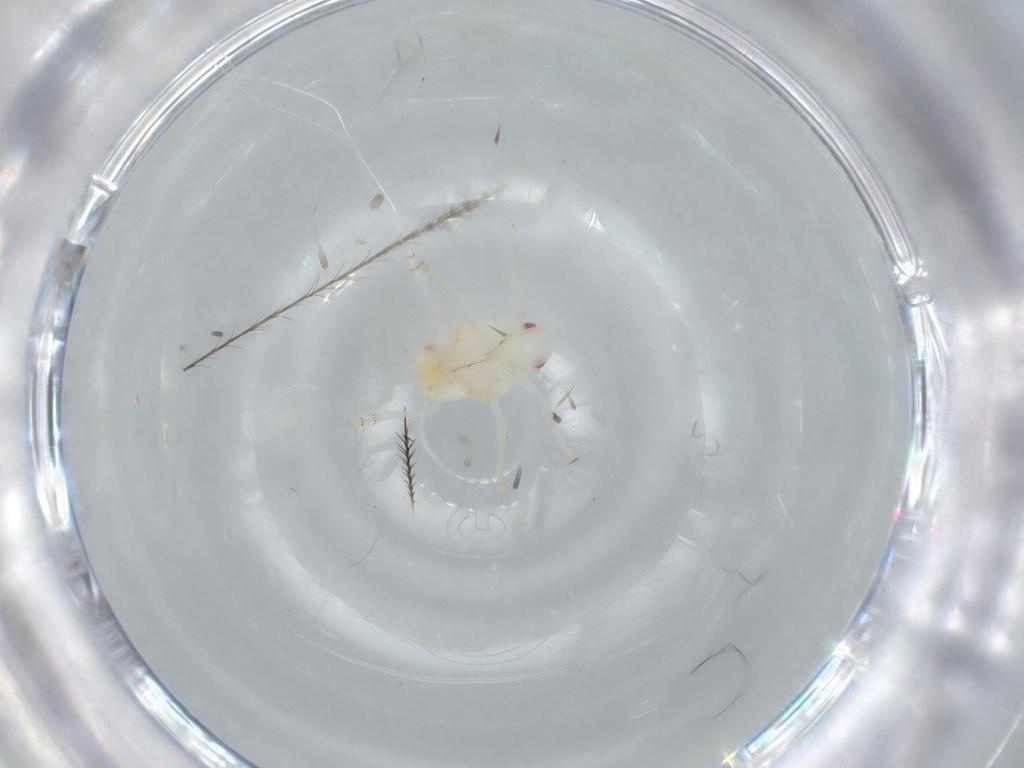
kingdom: Animalia
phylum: Arthropoda
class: Insecta
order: Hemiptera
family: Flatidae
